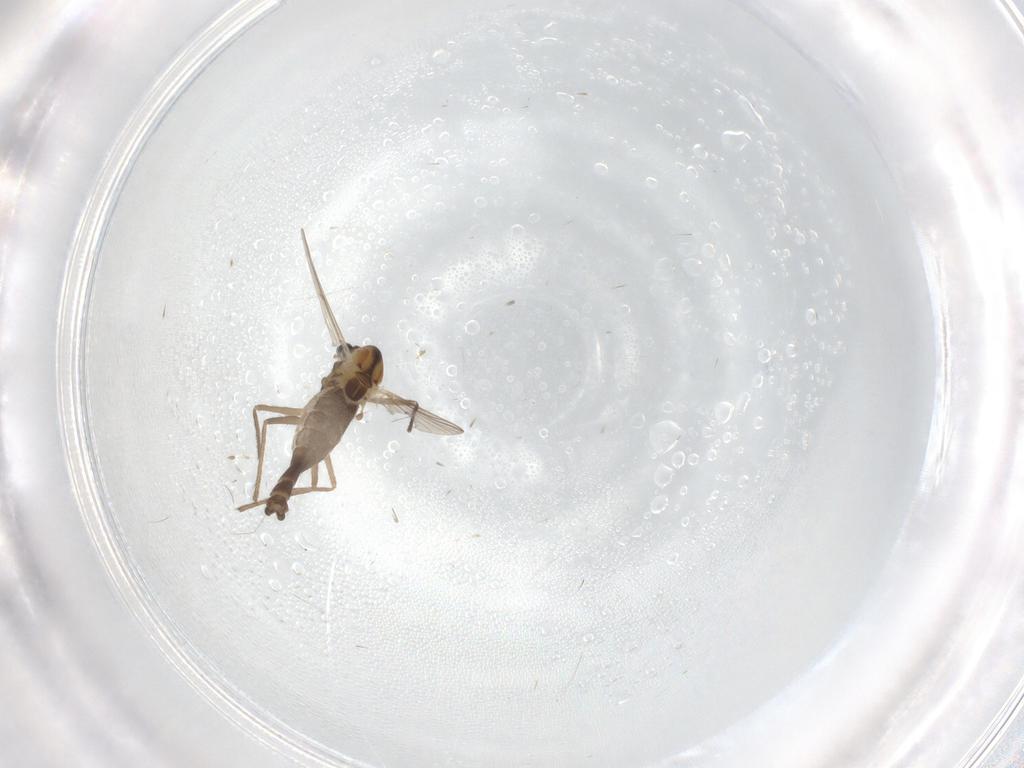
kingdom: Animalia
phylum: Arthropoda
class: Insecta
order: Diptera
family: Chironomidae
